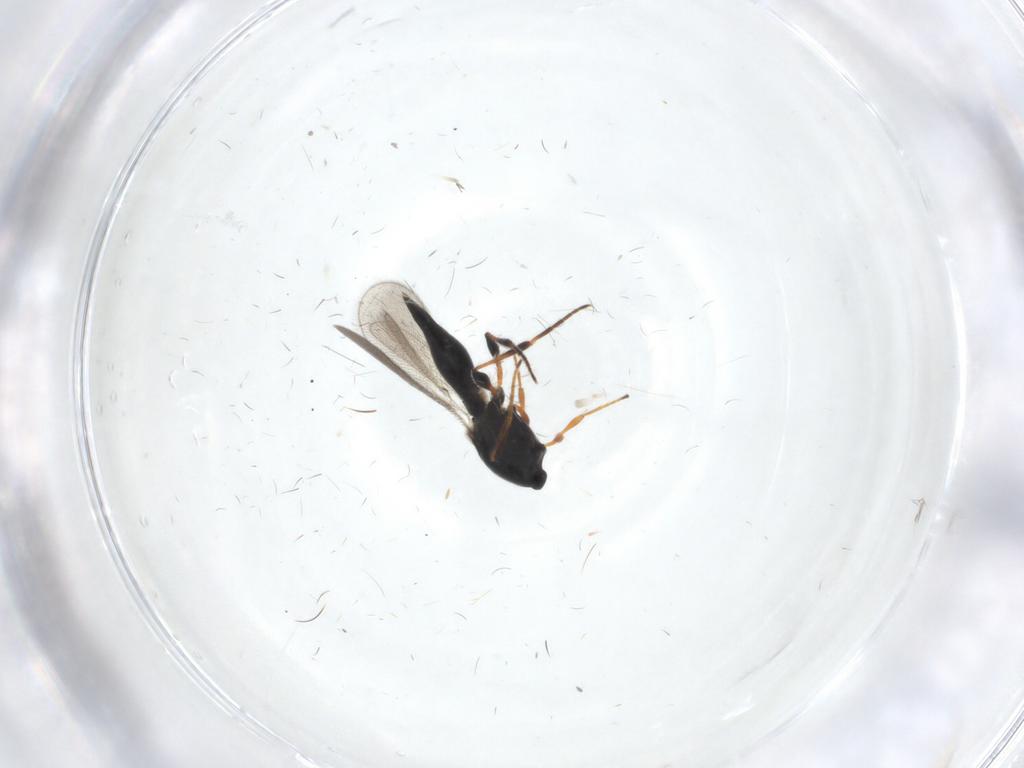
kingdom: Animalia
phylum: Arthropoda
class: Insecta
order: Hymenoptera
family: Platygastridae
